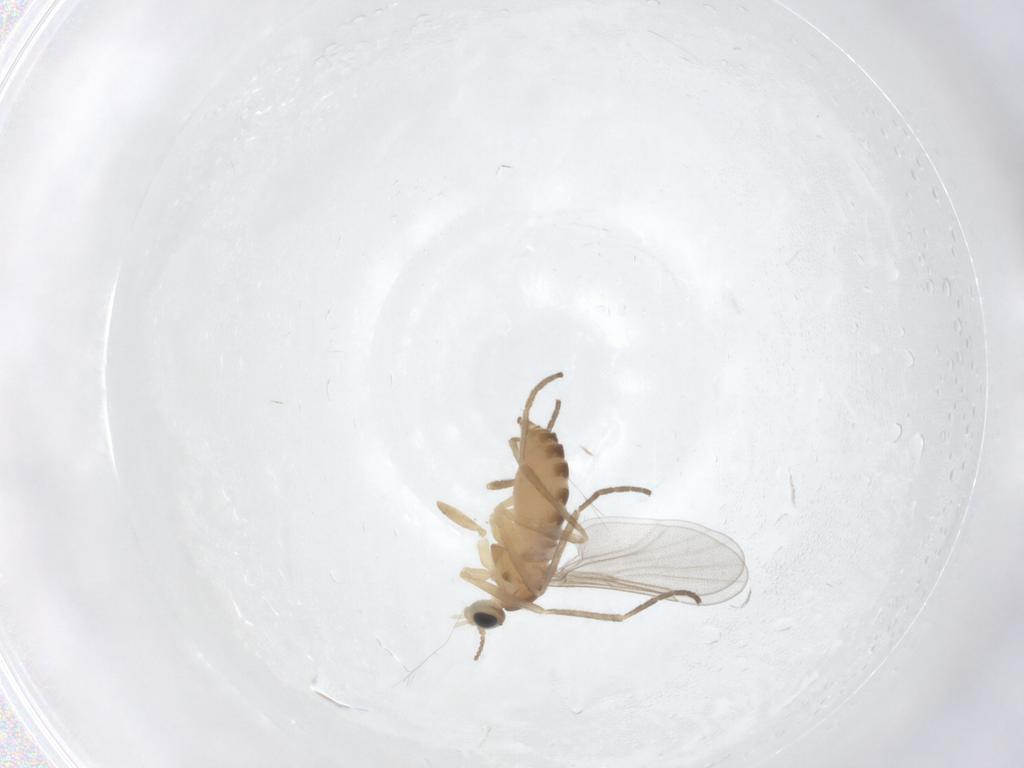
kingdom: Animalia
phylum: Arthropoda
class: Insecta
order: Diptera
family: Cecidomyiidae
